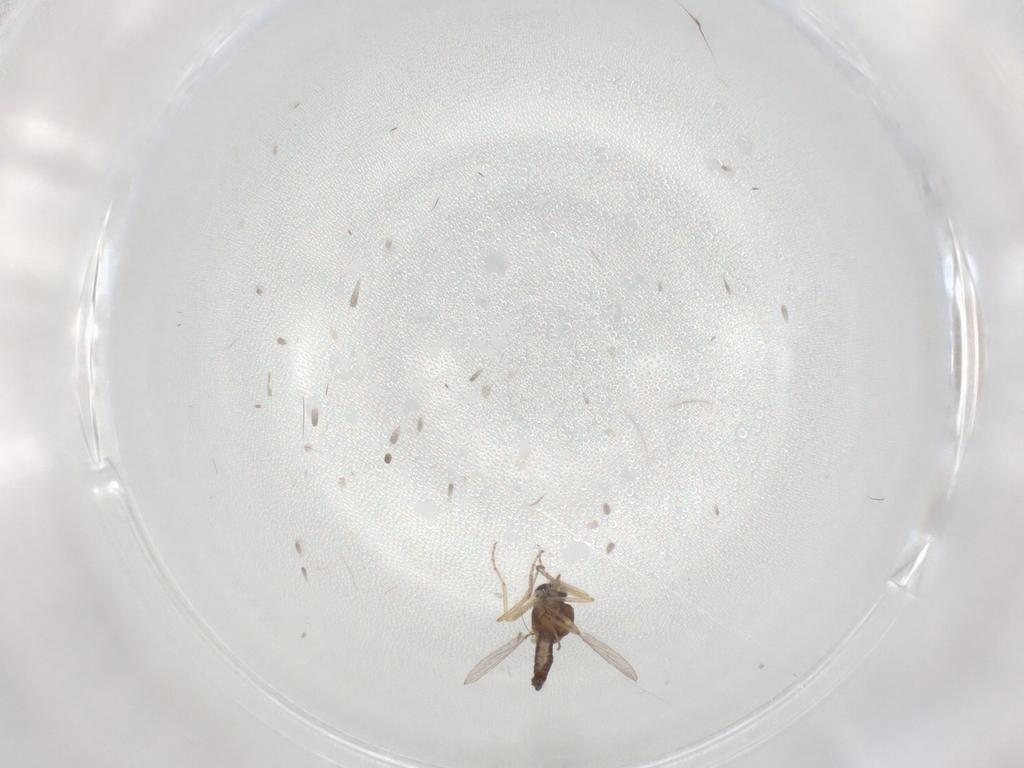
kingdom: Animalia
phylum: Arthropoda
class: Insecta
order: Diptera
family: Ceratopogonidae
